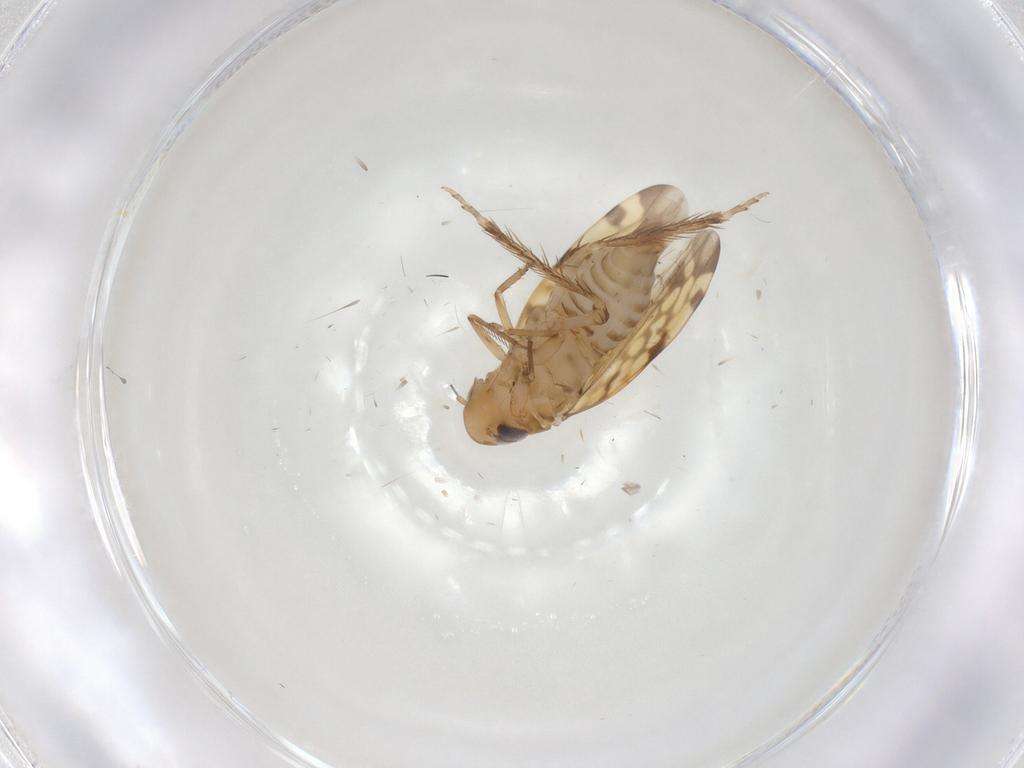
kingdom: Animalia
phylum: Arthropoda
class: Insecta
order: Hemiptera
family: Cicadellidae
